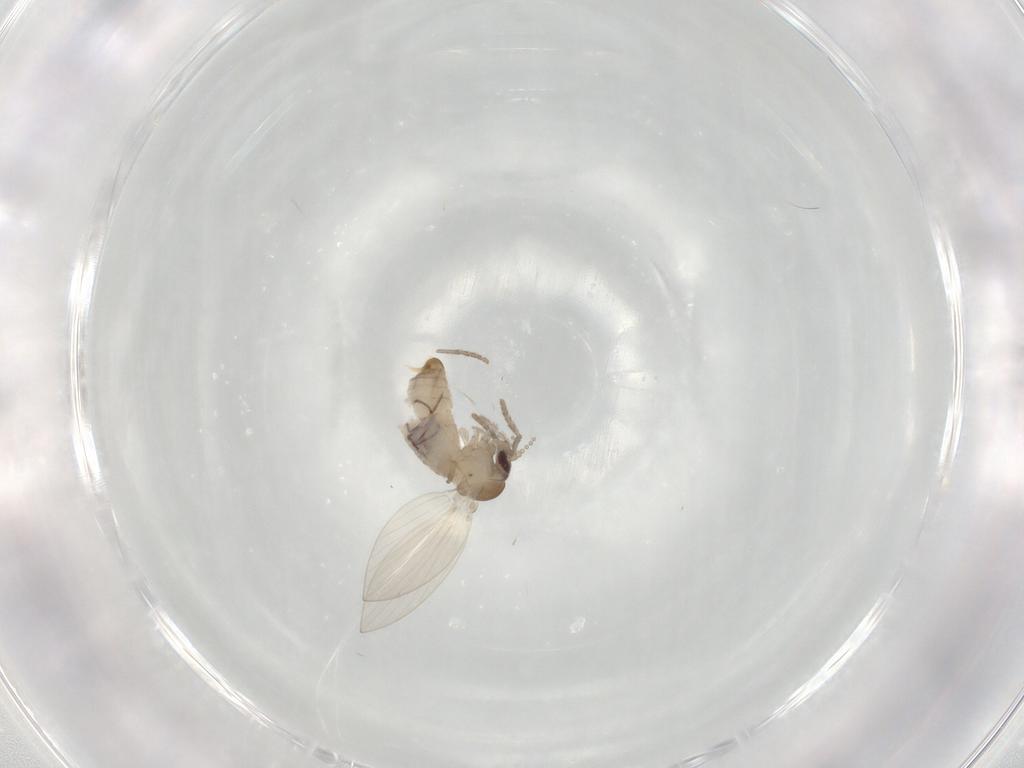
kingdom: Animalia
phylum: Arthropoda
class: Insecta
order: Diptera
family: Psychodidae
